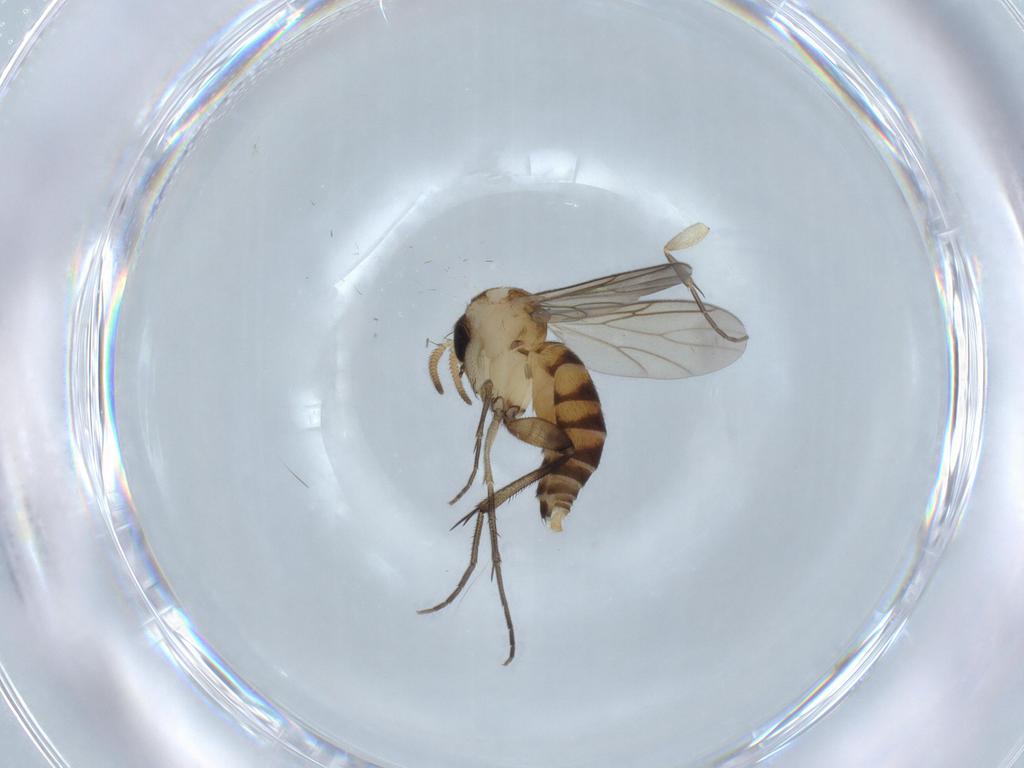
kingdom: Animalia
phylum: Arthropoda
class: Insecta
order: Diptera
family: Mycetophilidae
